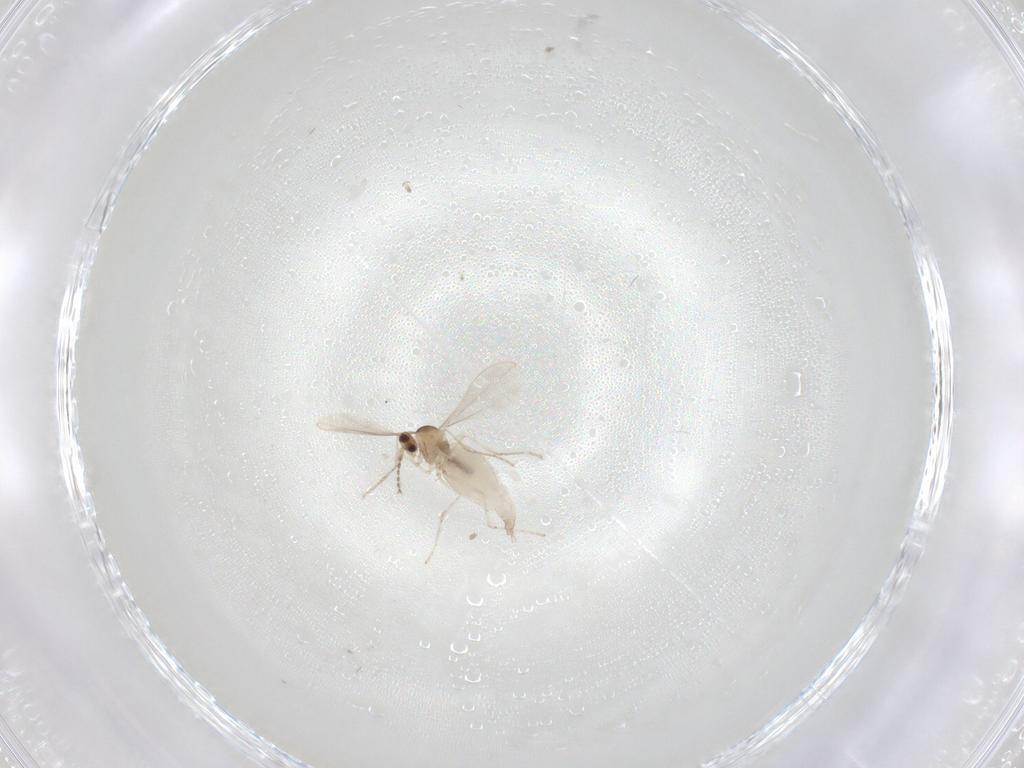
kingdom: Animalia
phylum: Arthropoda
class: Insecta
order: Diptera
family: Cecidomyiidae
